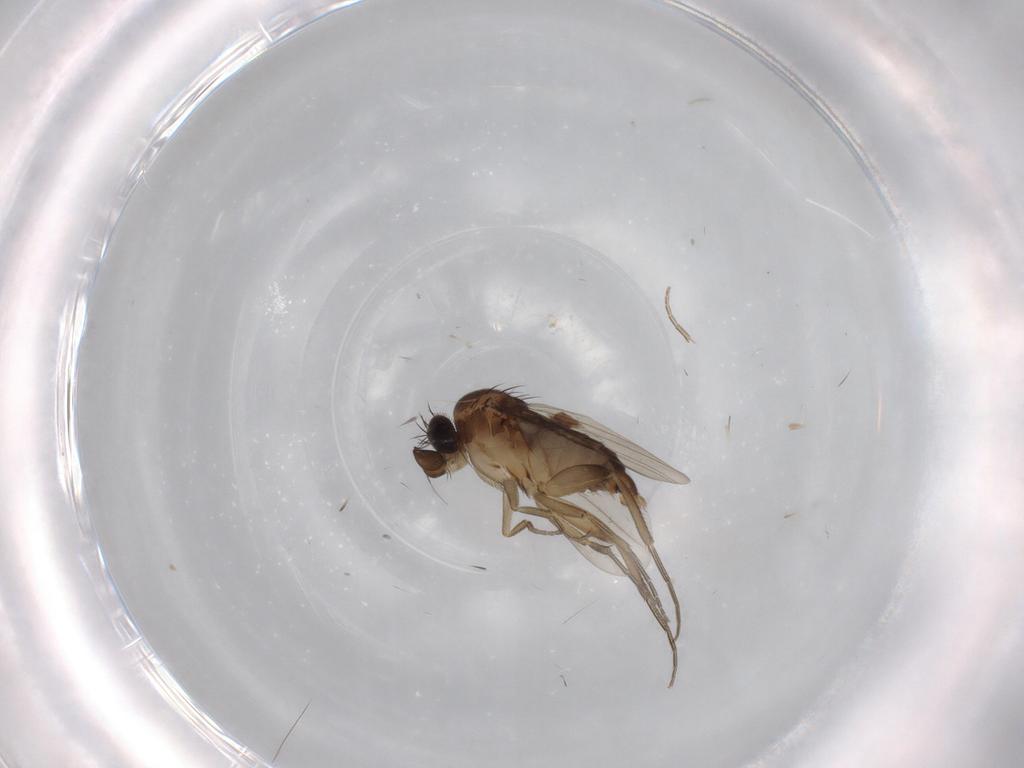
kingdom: Animalia
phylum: Arthropoda
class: Insecta
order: Diptera
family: Phoridae
